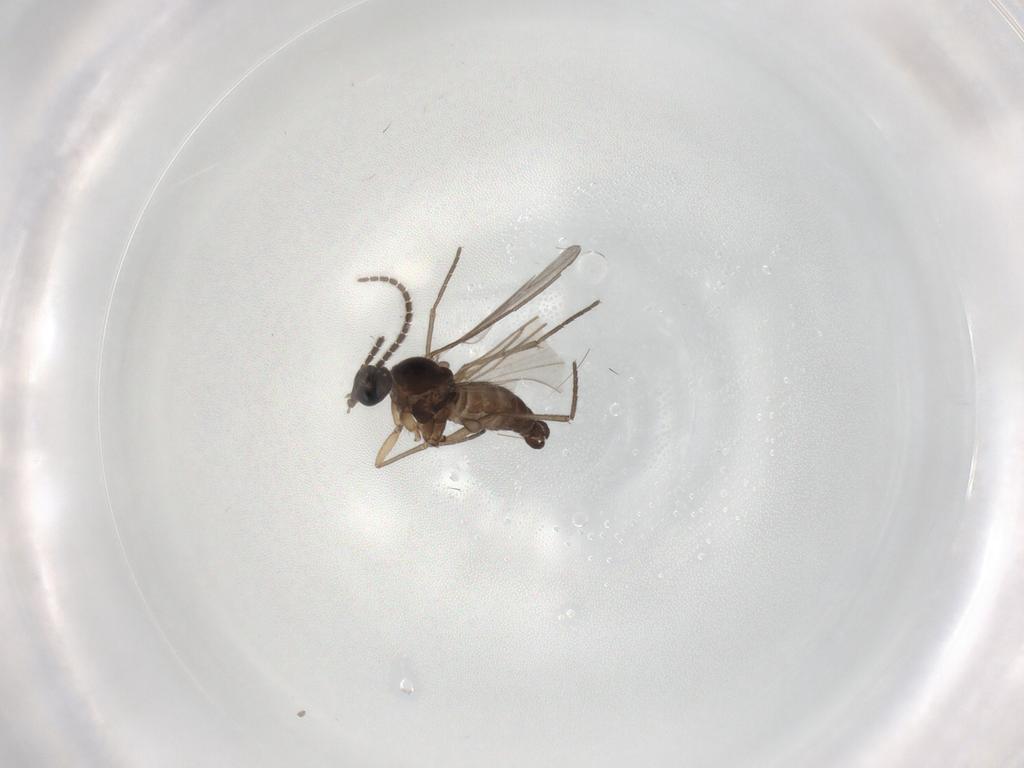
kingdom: Animalia
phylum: Arthropoda
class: Insecta
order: Diptera
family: Sciaridae
